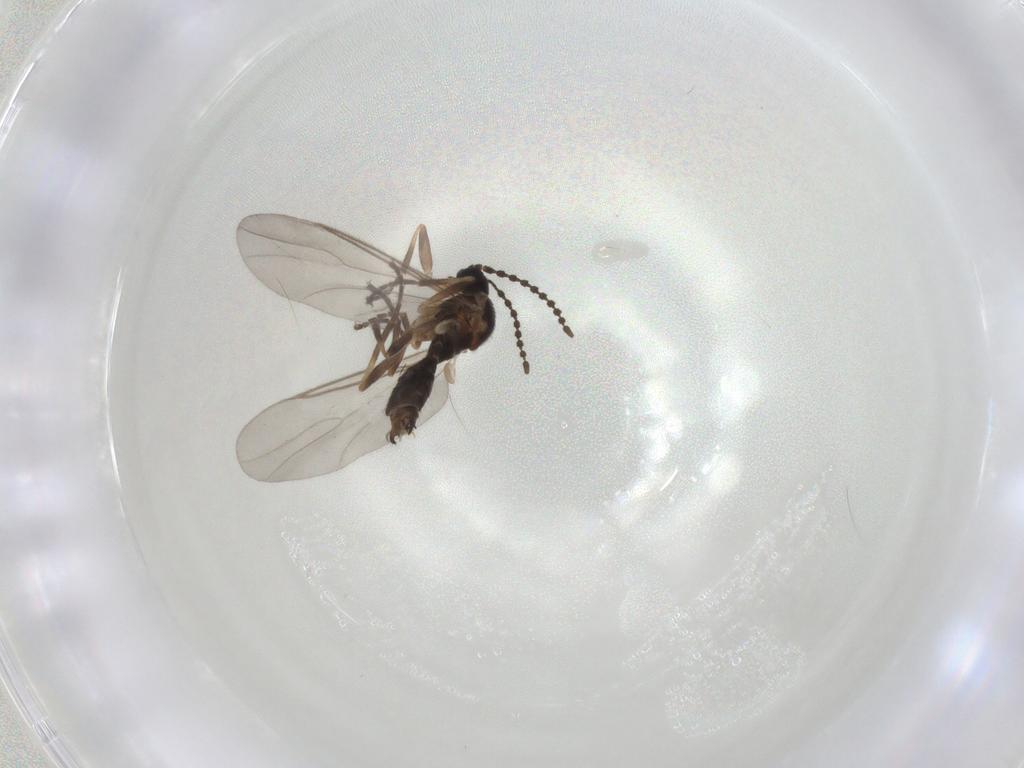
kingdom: Animalia
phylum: Arthropoda
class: Insecta
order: Diptera
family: Scatopsidae
